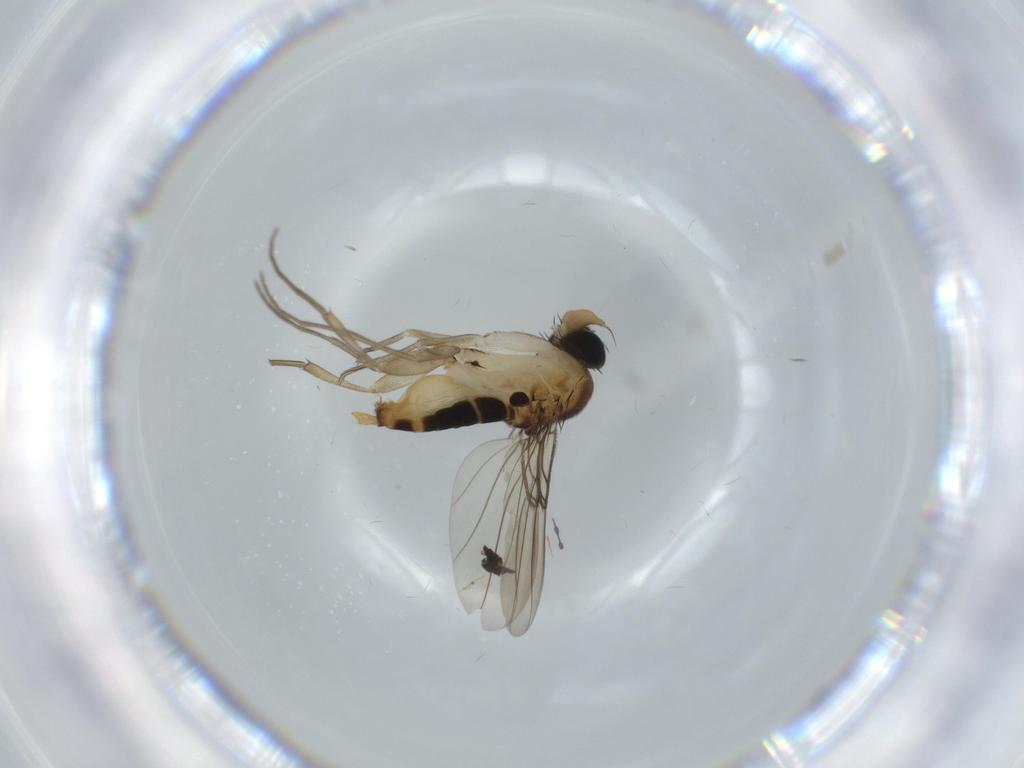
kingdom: Animalia
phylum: Arthropoda
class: Insecta
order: Diptera
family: Phoridae
